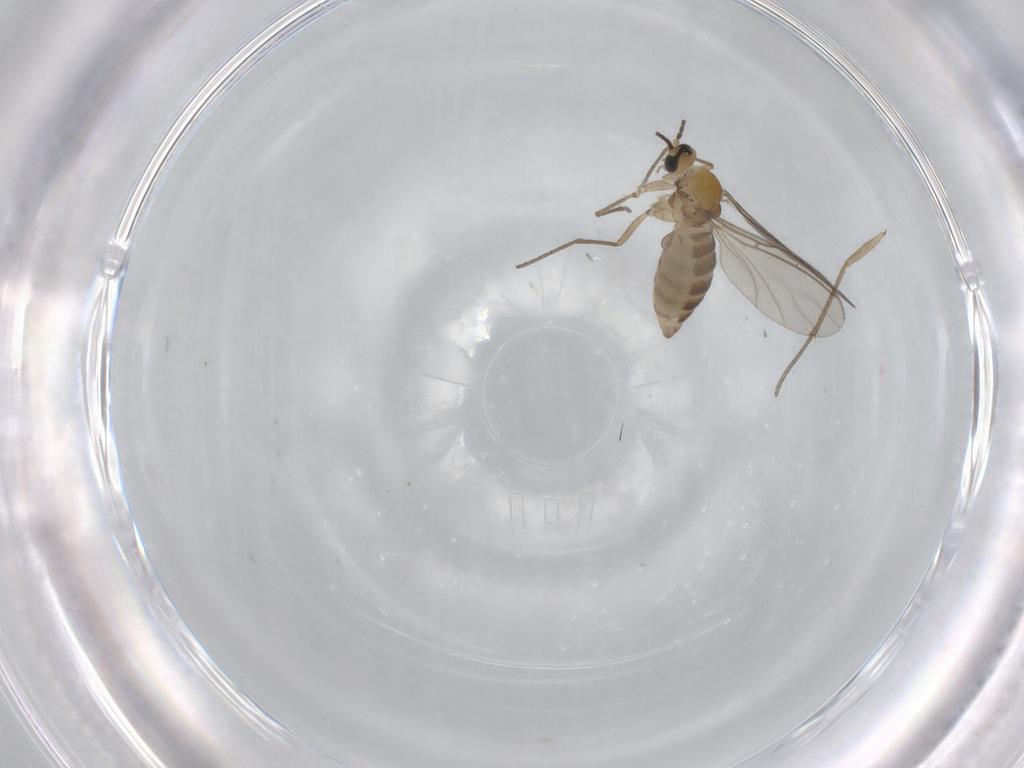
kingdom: Animalia
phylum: Arthropoda
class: Insecta
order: Diptera
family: Sciaridae
